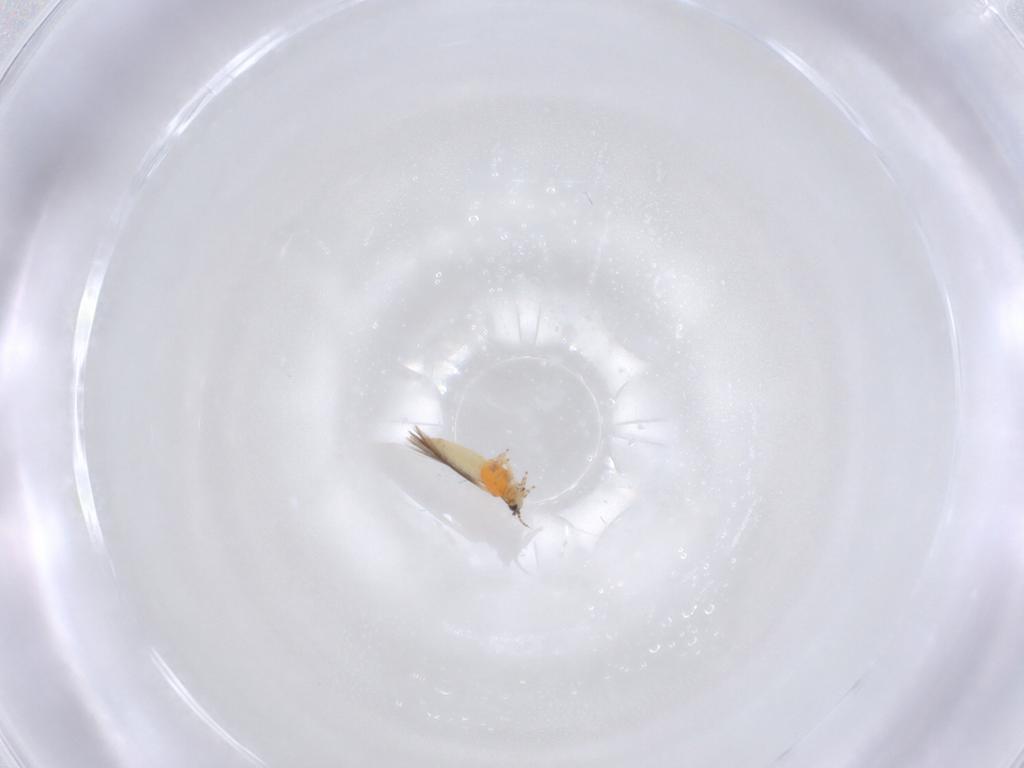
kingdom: Animalia
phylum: Arthropoda
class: Insecta
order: Thysanoptera
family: Thripidae
